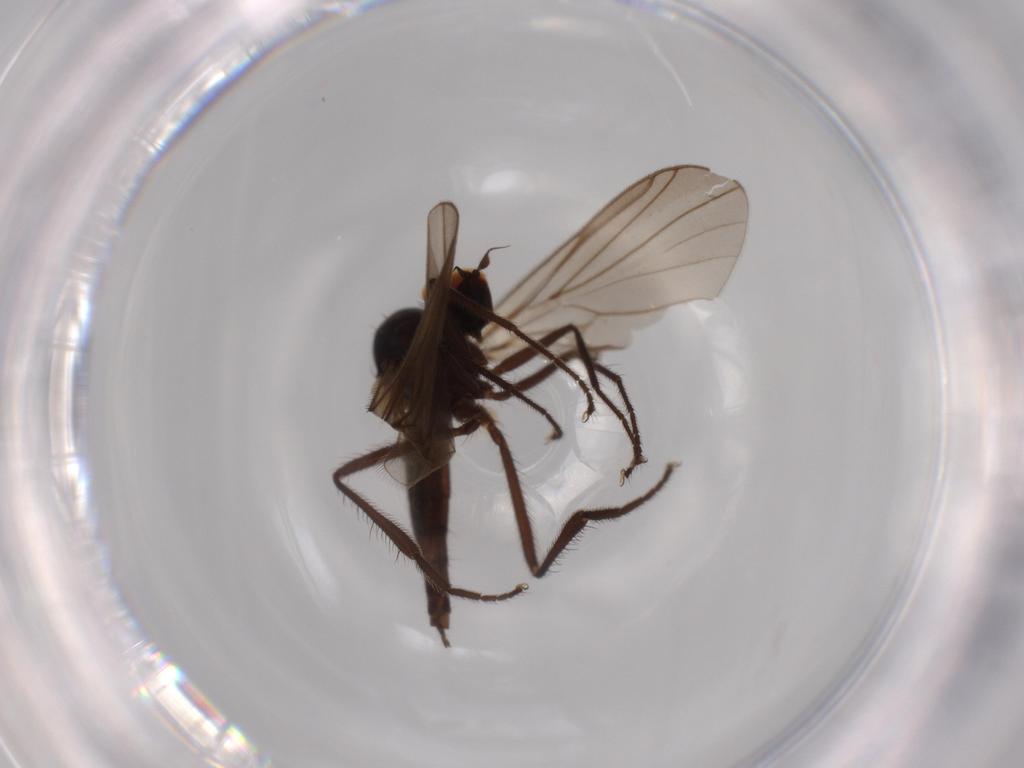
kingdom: Animalia
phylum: Arthropoda
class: Insecta
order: Diptera
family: Hybotidae
